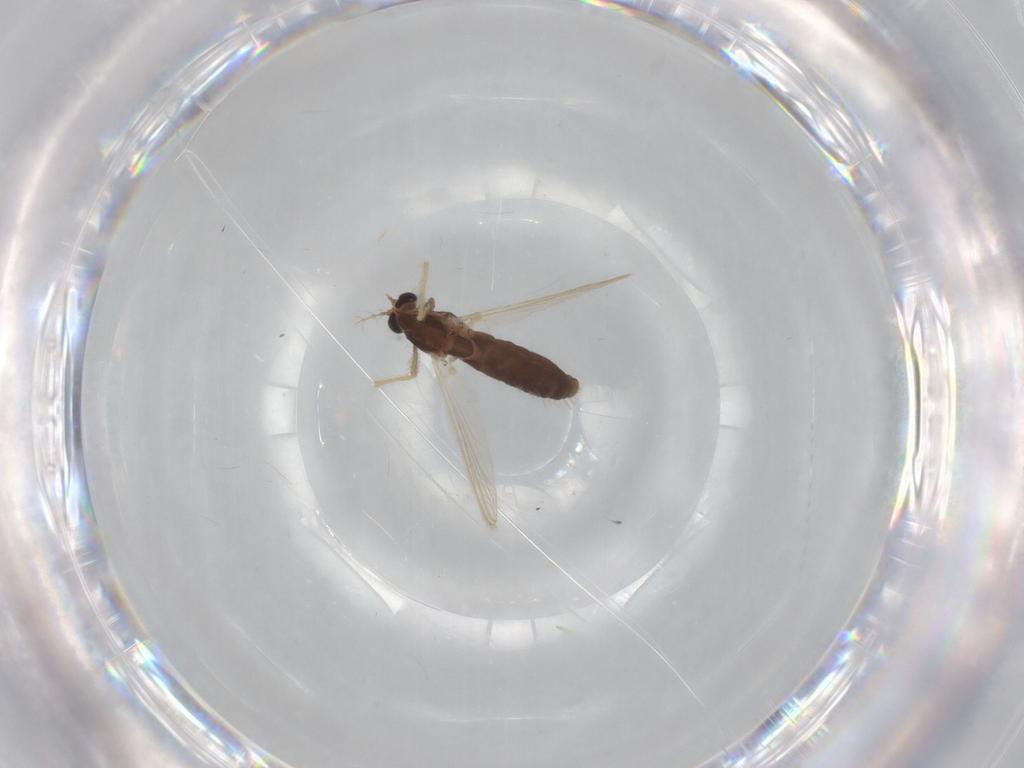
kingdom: Animalia
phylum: Arthropoda
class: Insecta
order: Diptera
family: Chironomidae
